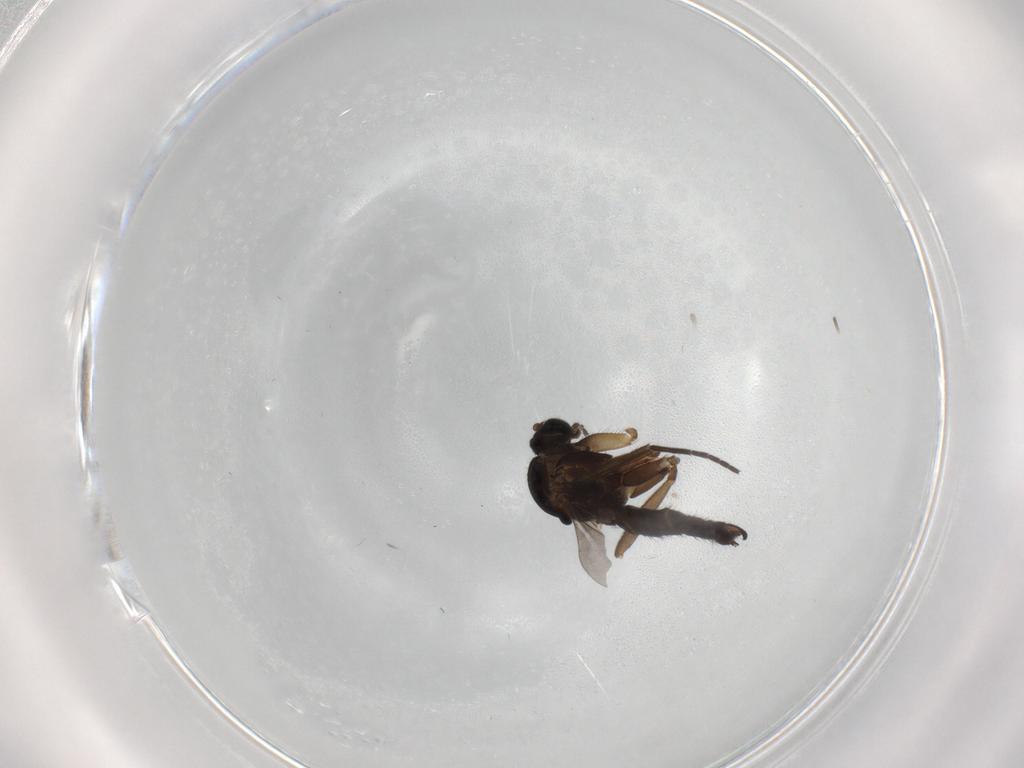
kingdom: Animalia
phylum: Arthropoda
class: Insecta
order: Diptera
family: Sciaridae
